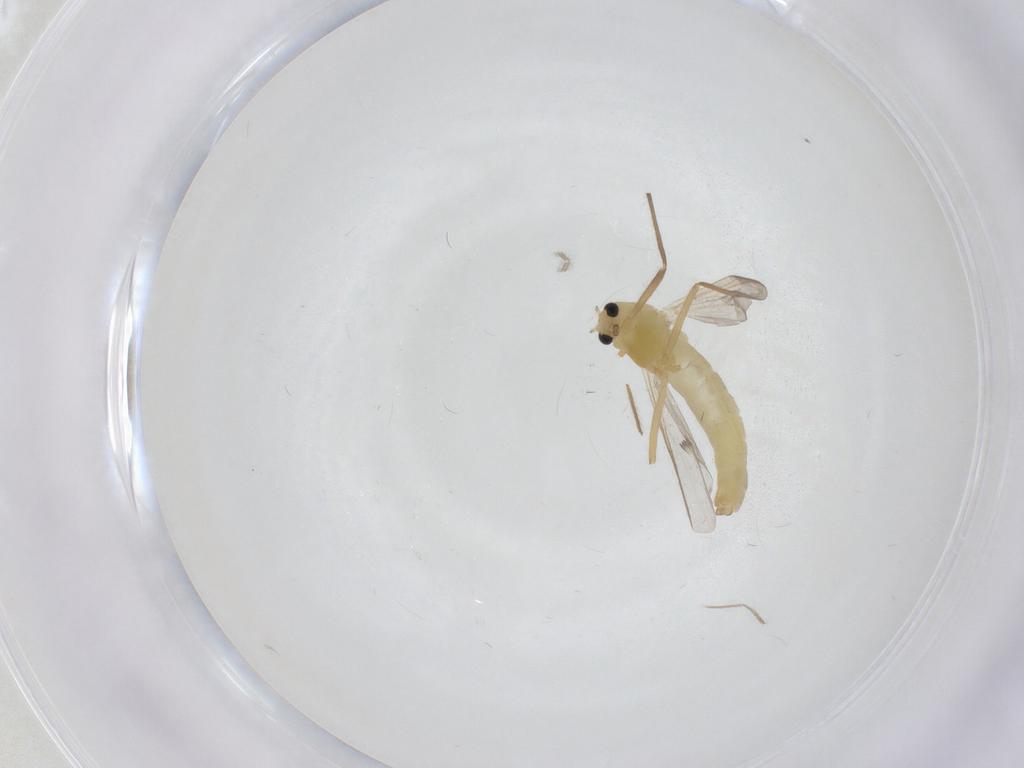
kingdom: Animalia
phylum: Arthropoda
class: Insecta
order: Diptera
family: Chironomidae
